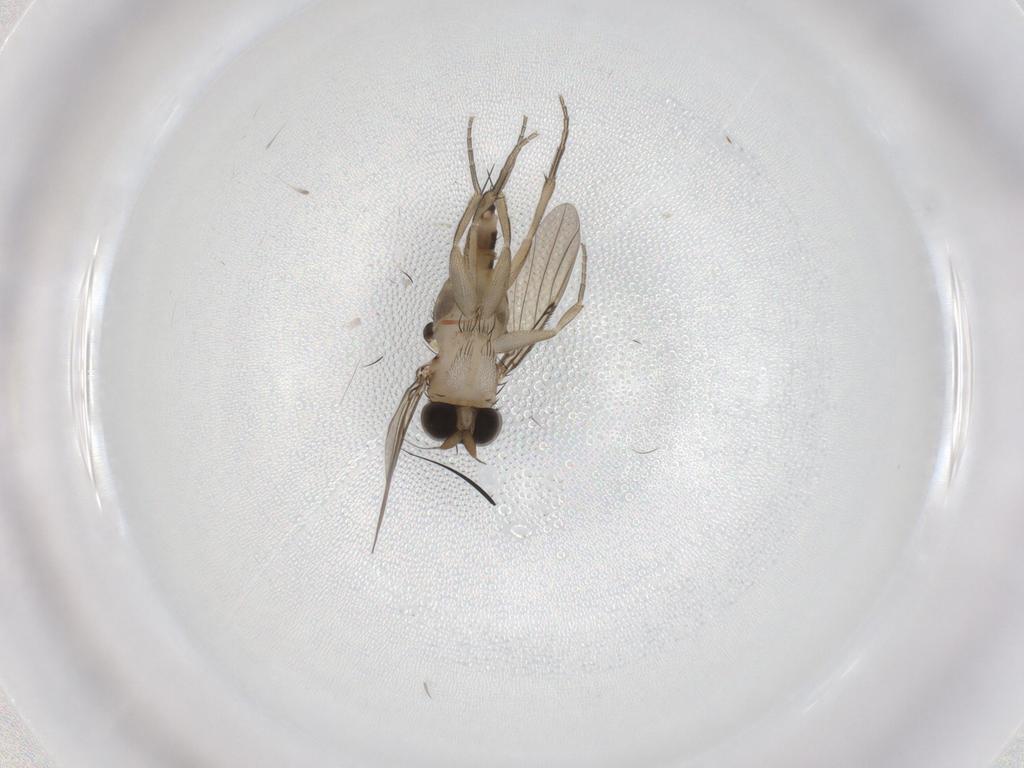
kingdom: Animalia
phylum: Arthropoda
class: Insecta
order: Diptera
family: Phoridae
